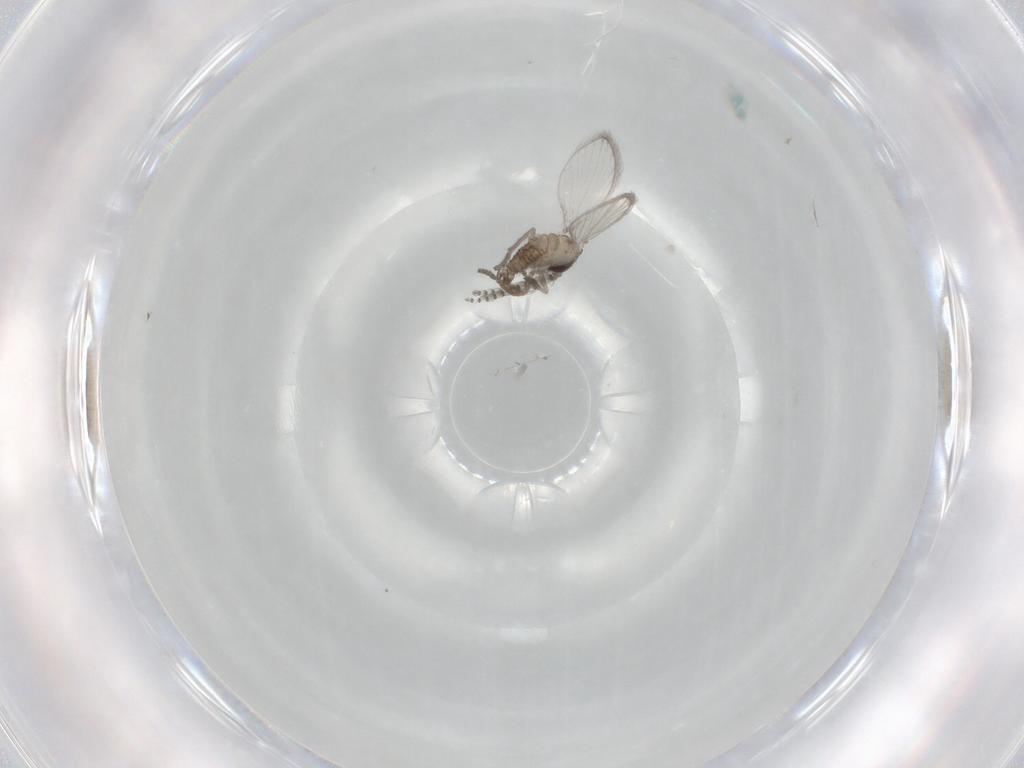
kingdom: Animalia
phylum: Arthropoda
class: Insecta
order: Diptera
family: Psychodidae
